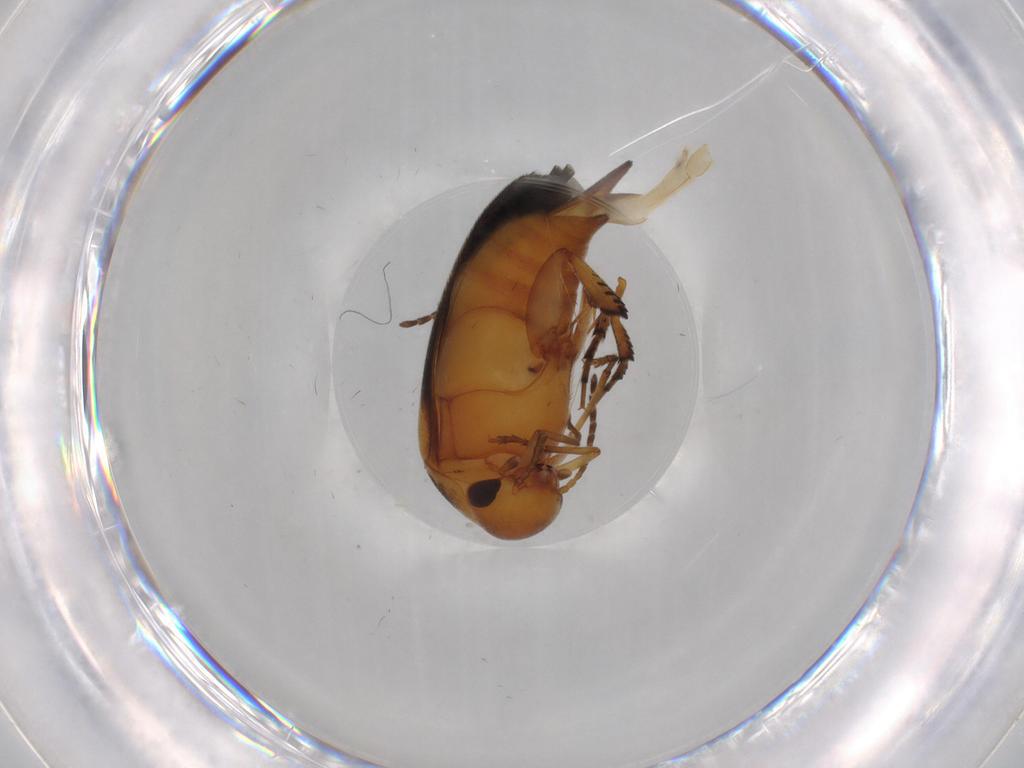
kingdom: Animalia
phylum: Arthropoda
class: Insecta
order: Coleoptera
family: Mordellidae
